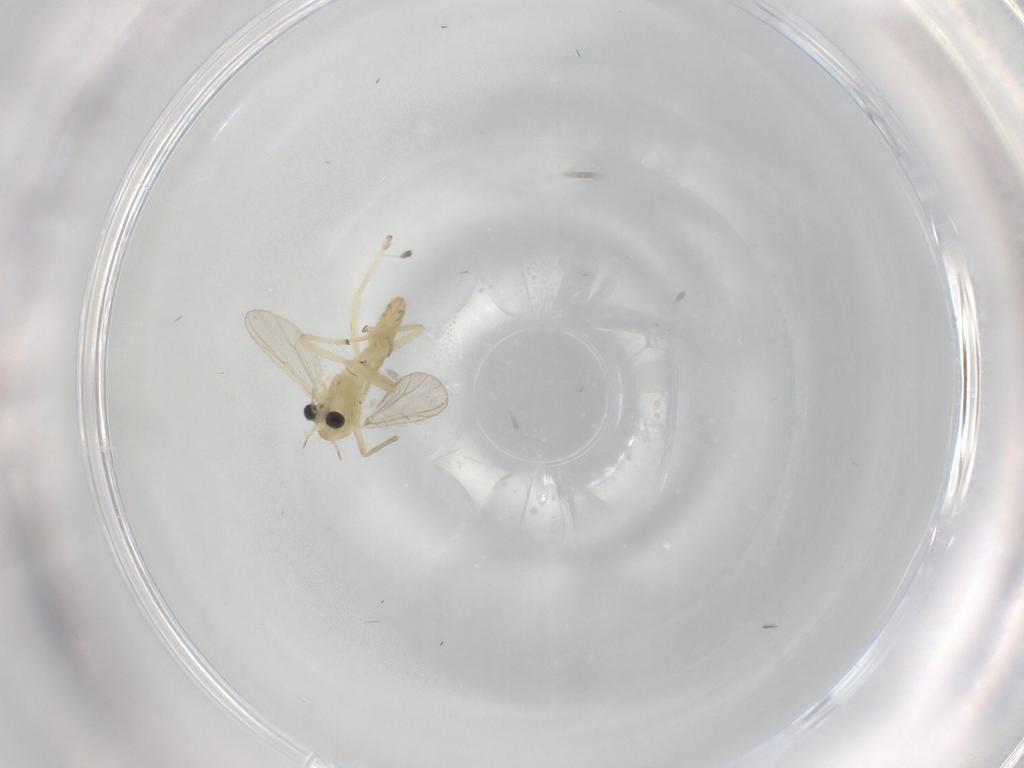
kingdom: Animalia
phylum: Arthropoda
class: Insecta
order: Diptera
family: Chironomidae
